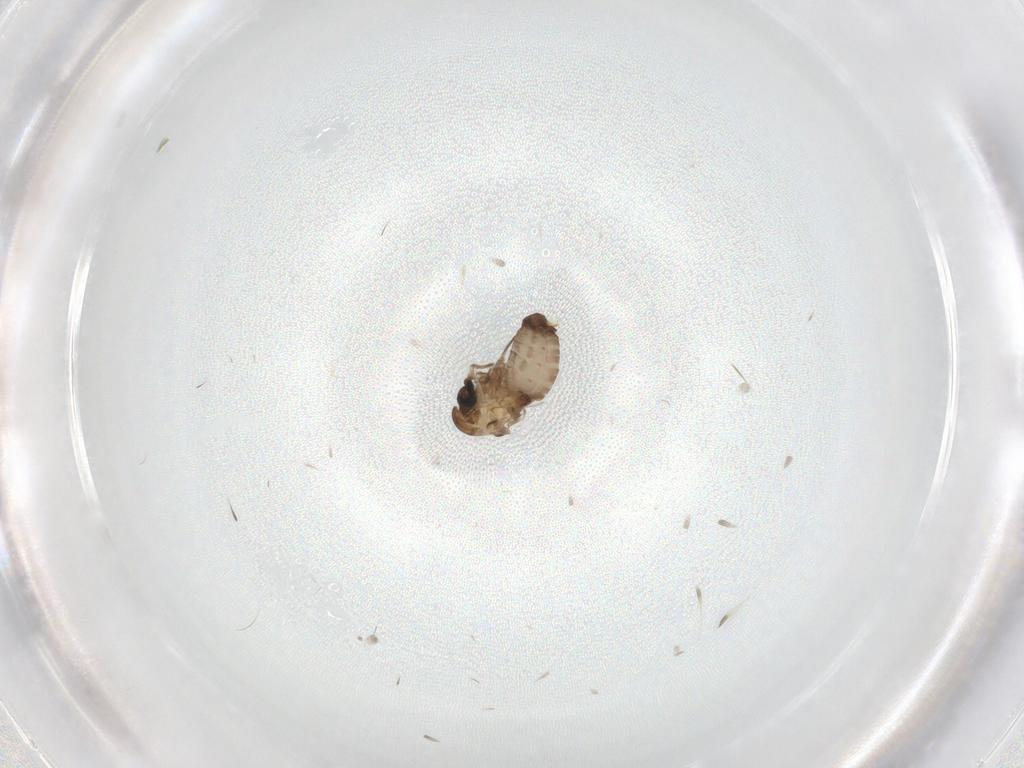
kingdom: Animalia
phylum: Arthropoda
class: Insecta
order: Diptera
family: Psychodidae
